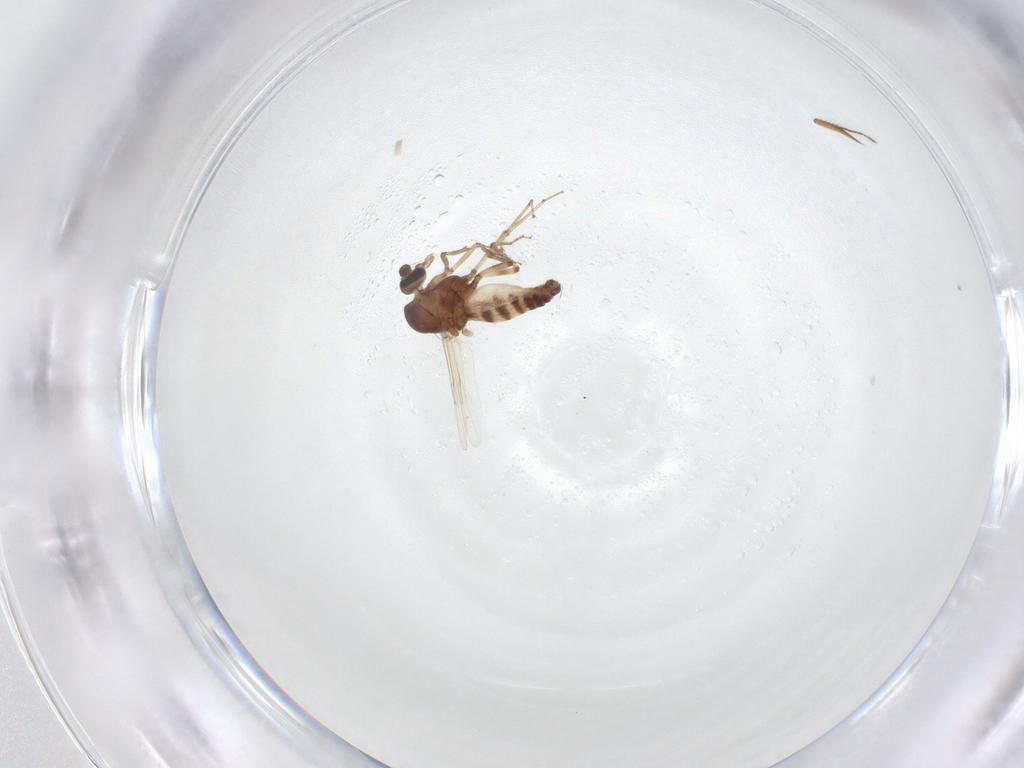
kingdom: Animalia
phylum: Arthropoda
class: Insecta
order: Diptera
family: Ceratopogonidae
